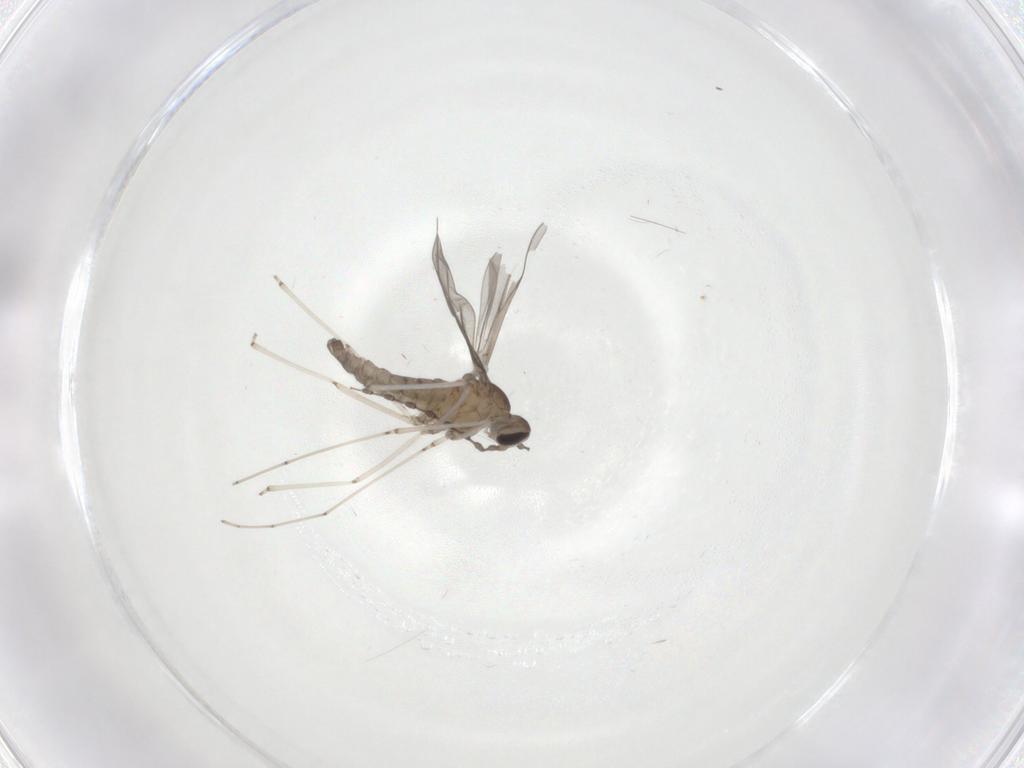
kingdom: Animalia
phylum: Arthropoda
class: Insecta
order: Diptera
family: Cecidomyiidae
